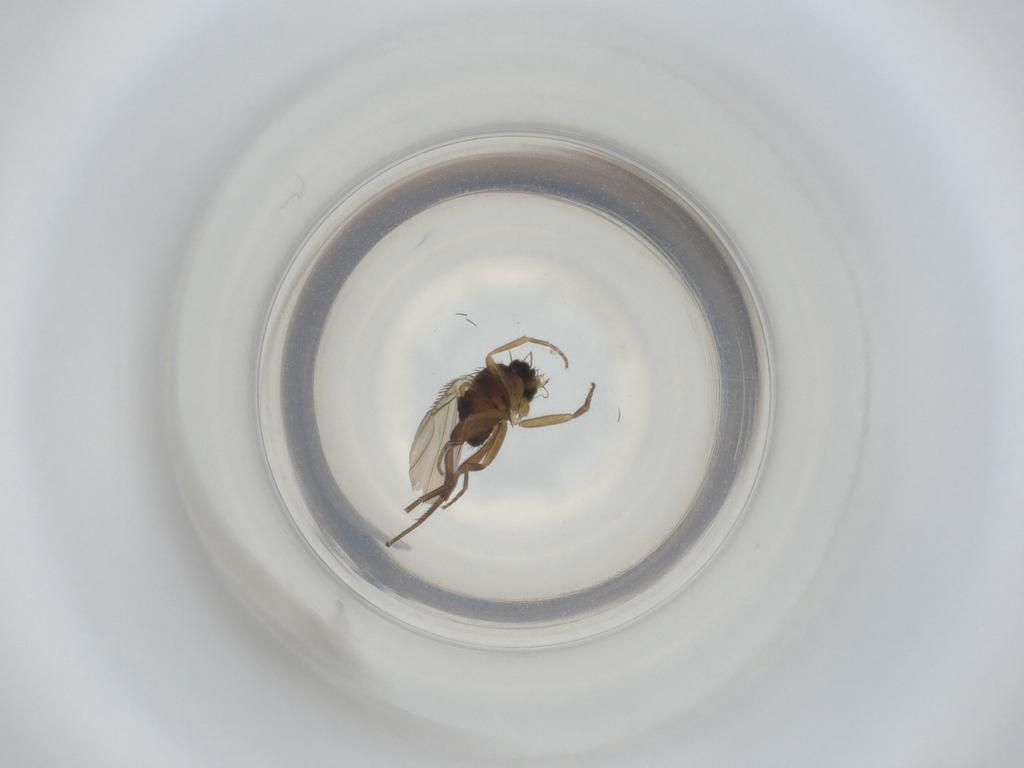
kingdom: Animalia
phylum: Arthropoda
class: Insecta
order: Diptera
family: Phoridae
